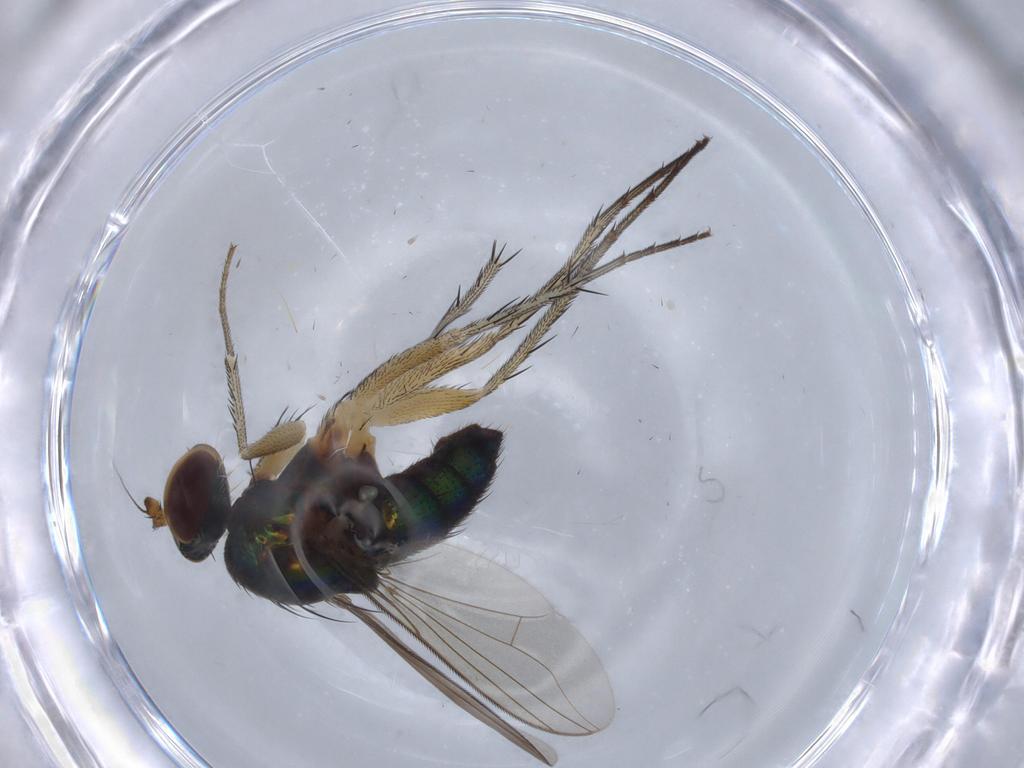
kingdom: Animalia
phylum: Arthropoda
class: Insecta
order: Diptera
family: Dolichopodidae
